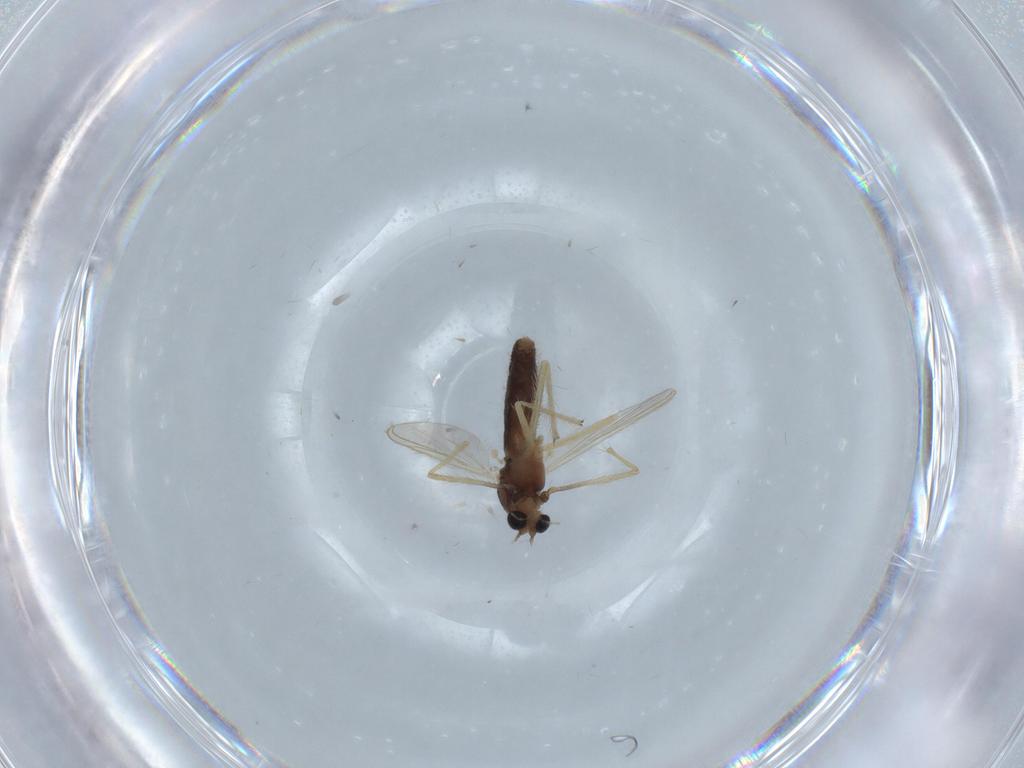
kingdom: Animalia
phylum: Arthropoda
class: Insecta
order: Diptera
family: Chironomidae
